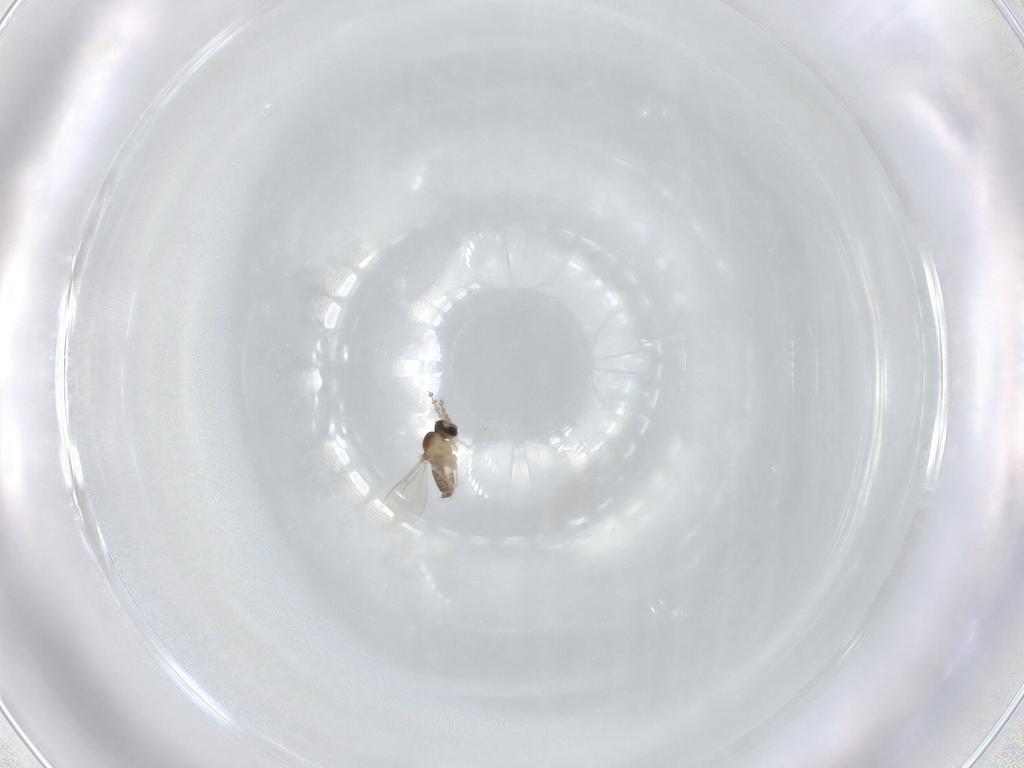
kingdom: Animalia
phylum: Arthropoda
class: Insecta
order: Diptera
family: Cecidomyiidae
